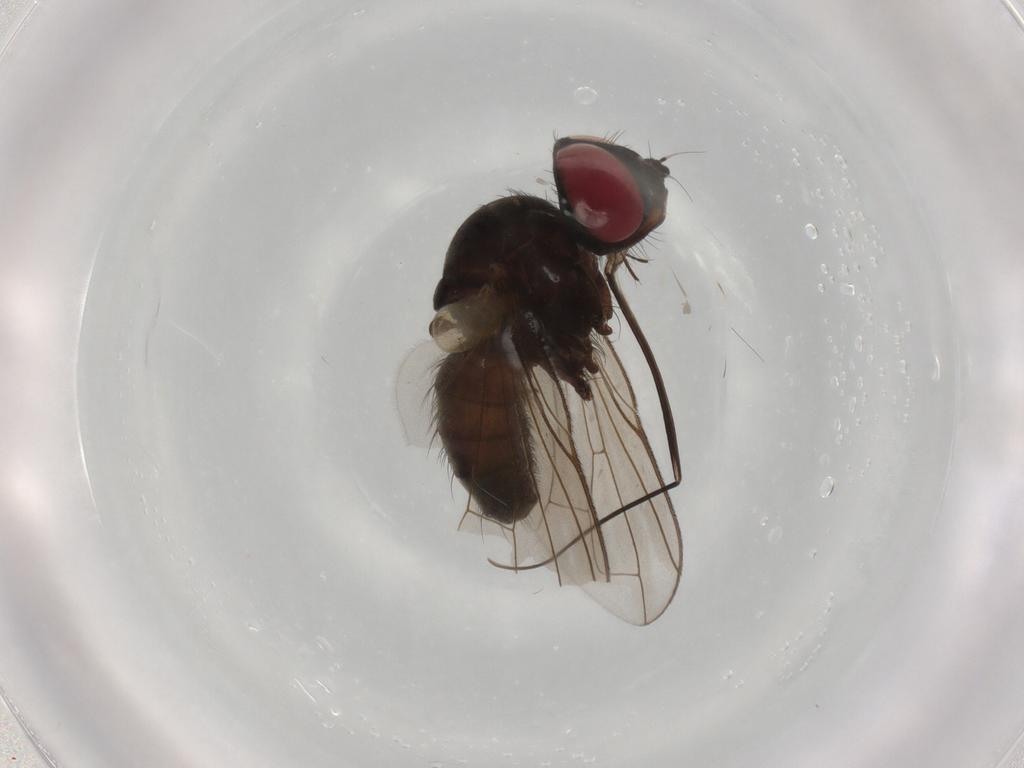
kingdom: Animalia
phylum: Arthropoda
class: Insecta
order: Diptera
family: Tachinidae
